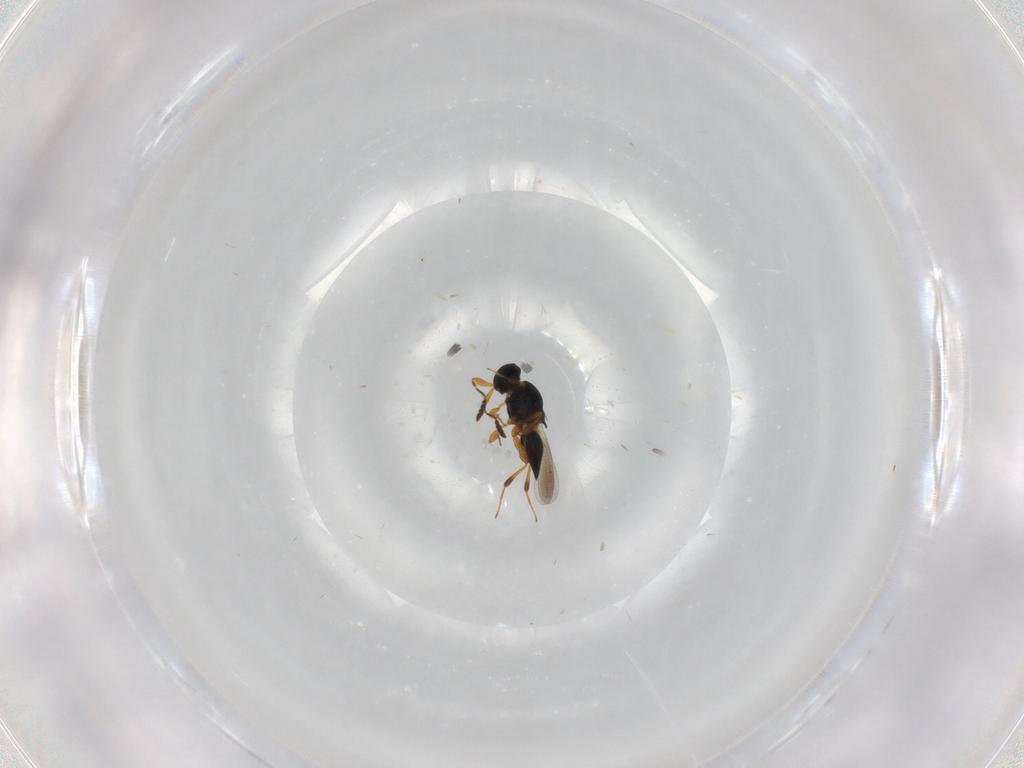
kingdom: Animalia
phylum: Arthropoda
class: Insecta
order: Hymenoptera
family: Diapriidae
